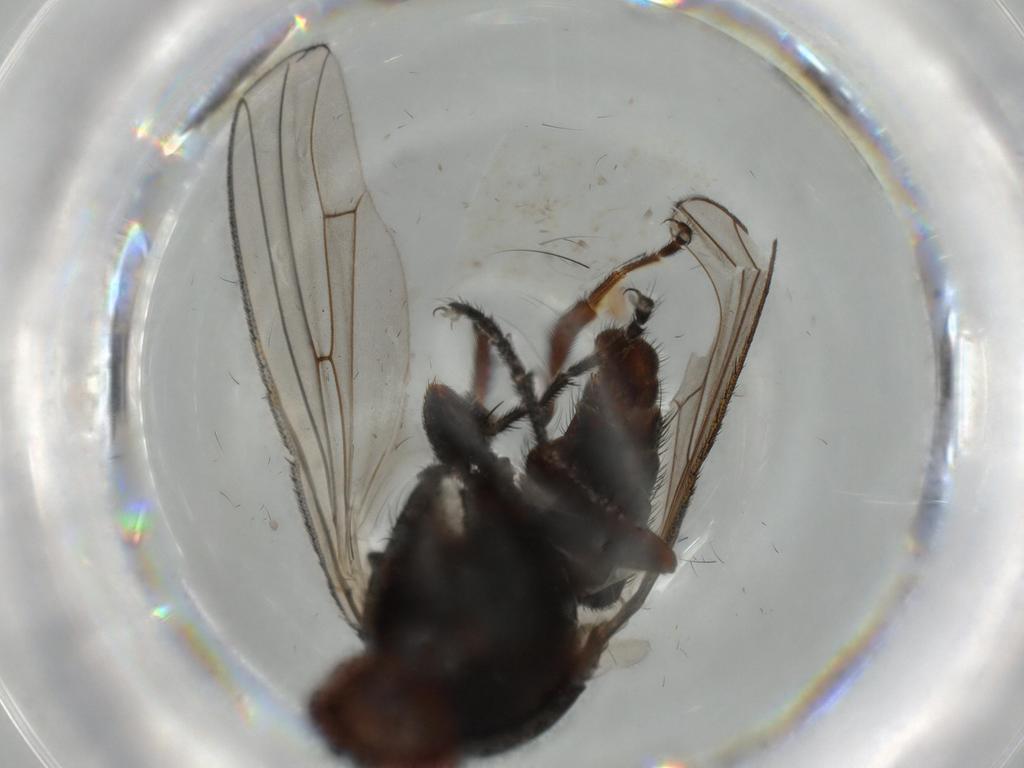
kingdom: Animalia
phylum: Arthropoda
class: Insecta
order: Diptera
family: Heleomyzidae
